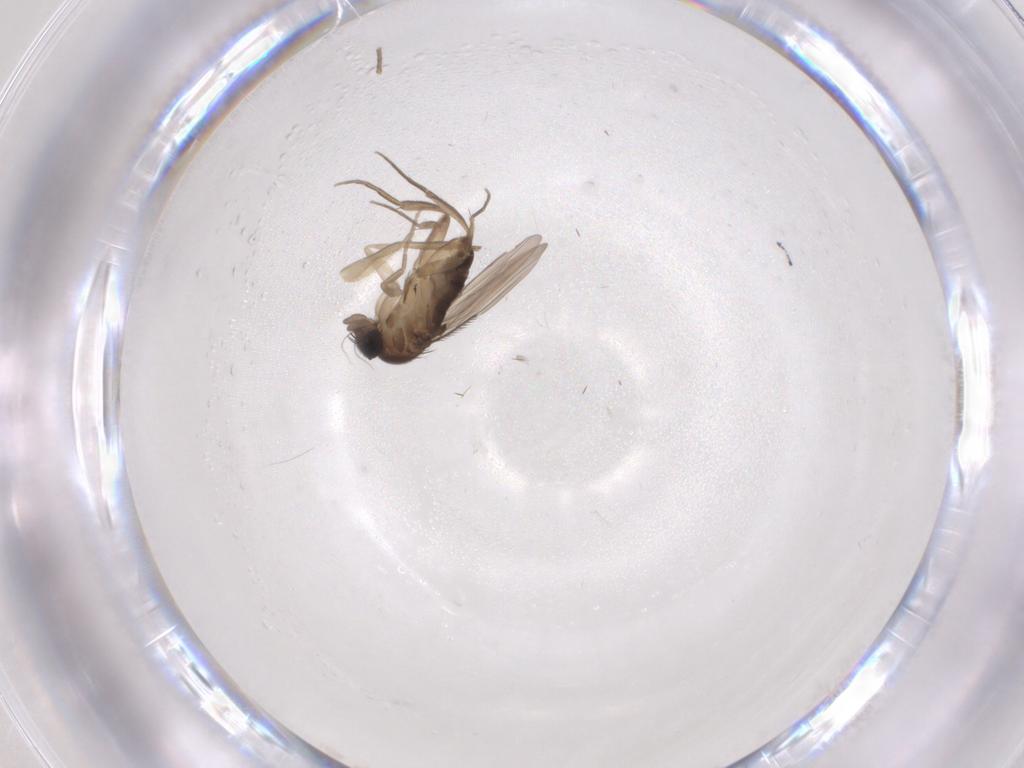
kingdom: Animalia
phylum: Arthropoda
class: Insecta
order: Diptera
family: Phoridae
